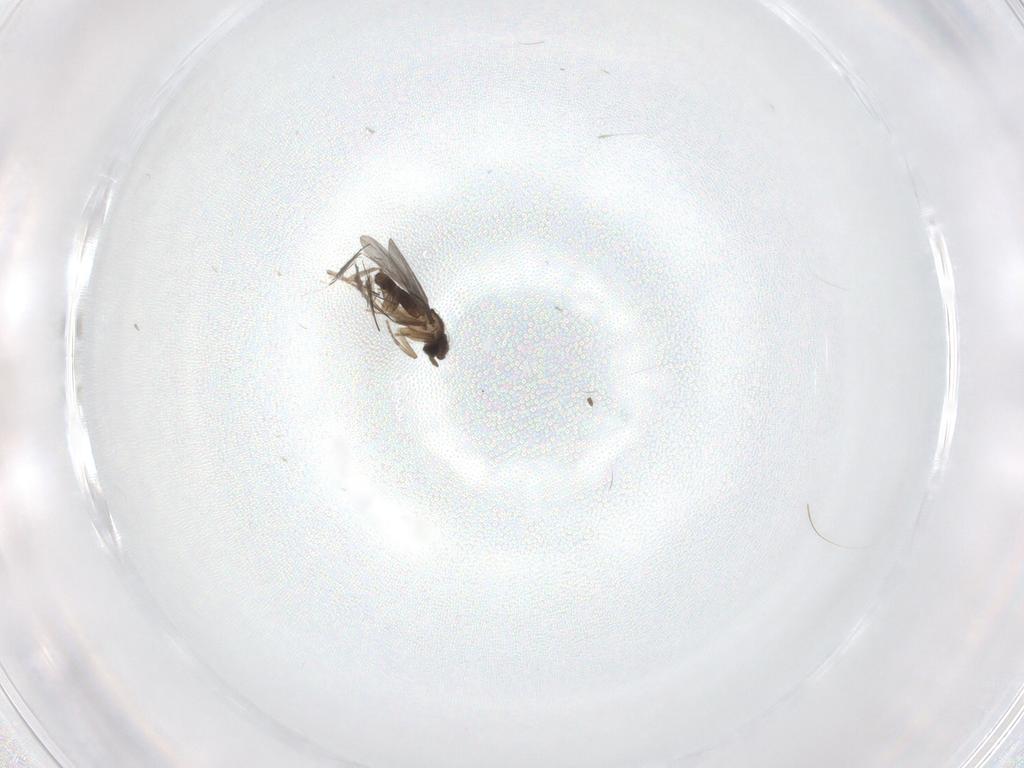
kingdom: Animalia
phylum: Arthropoda
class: Insecta
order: Diptera
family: Cecidomyiidae
